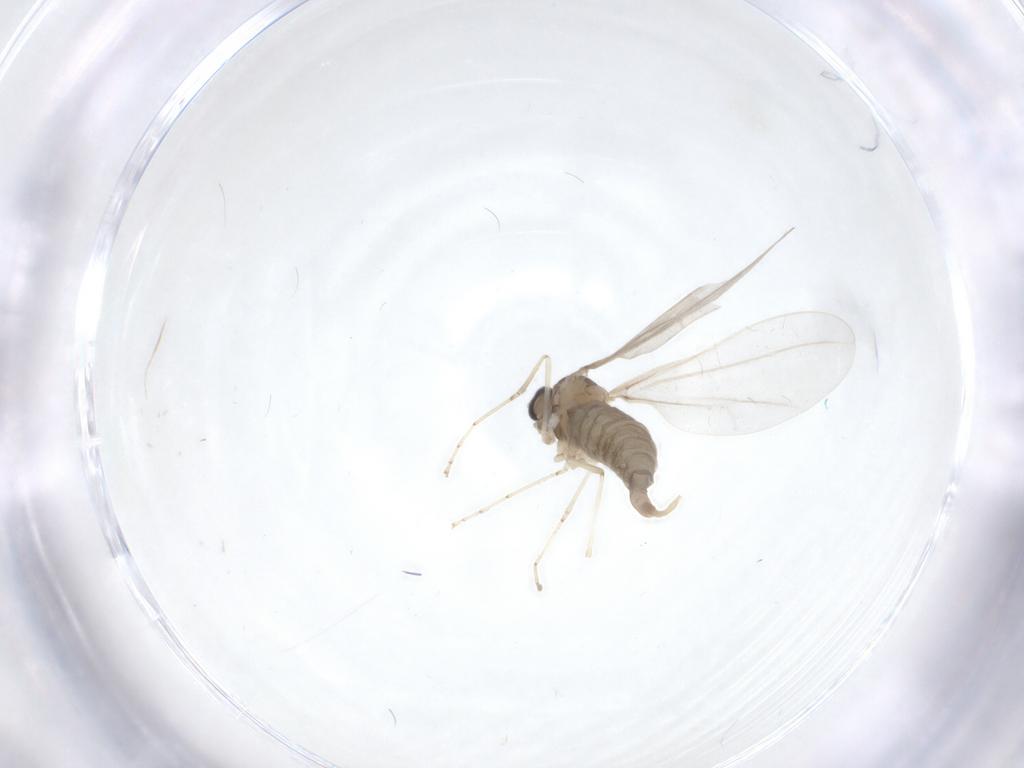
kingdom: Animalia
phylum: Arthropoda
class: Insecta
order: Diptera
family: Cecidomyiidae
